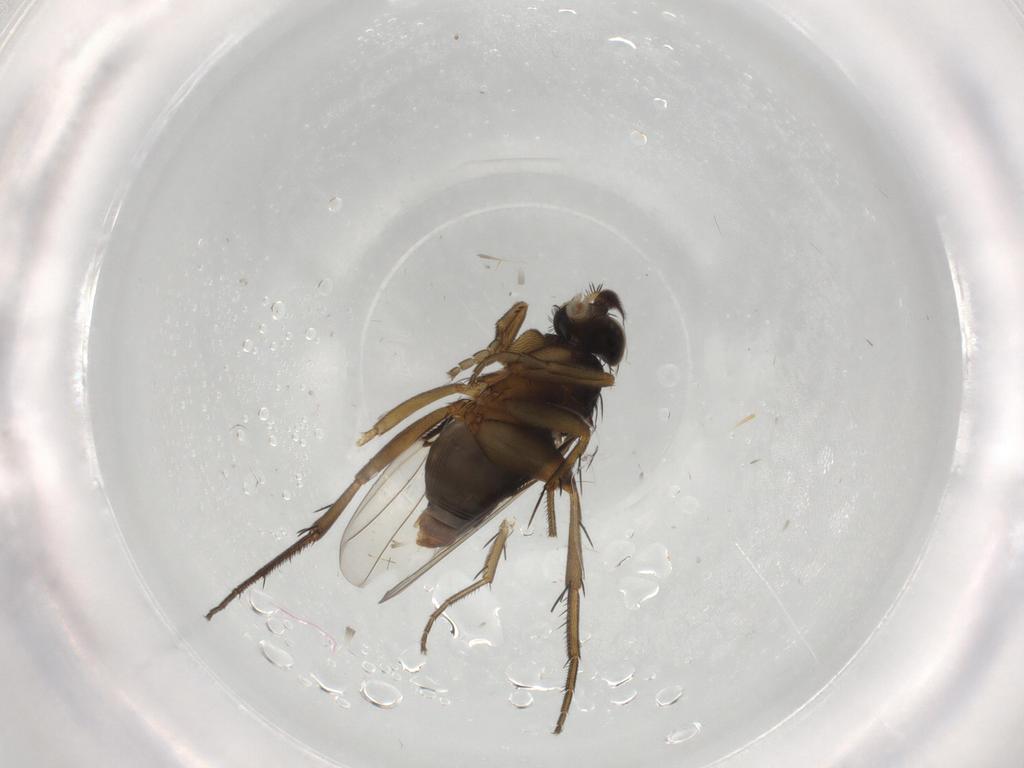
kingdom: Animalia
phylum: Arthropoda
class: Insecta
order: Diptera
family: Phoridae
